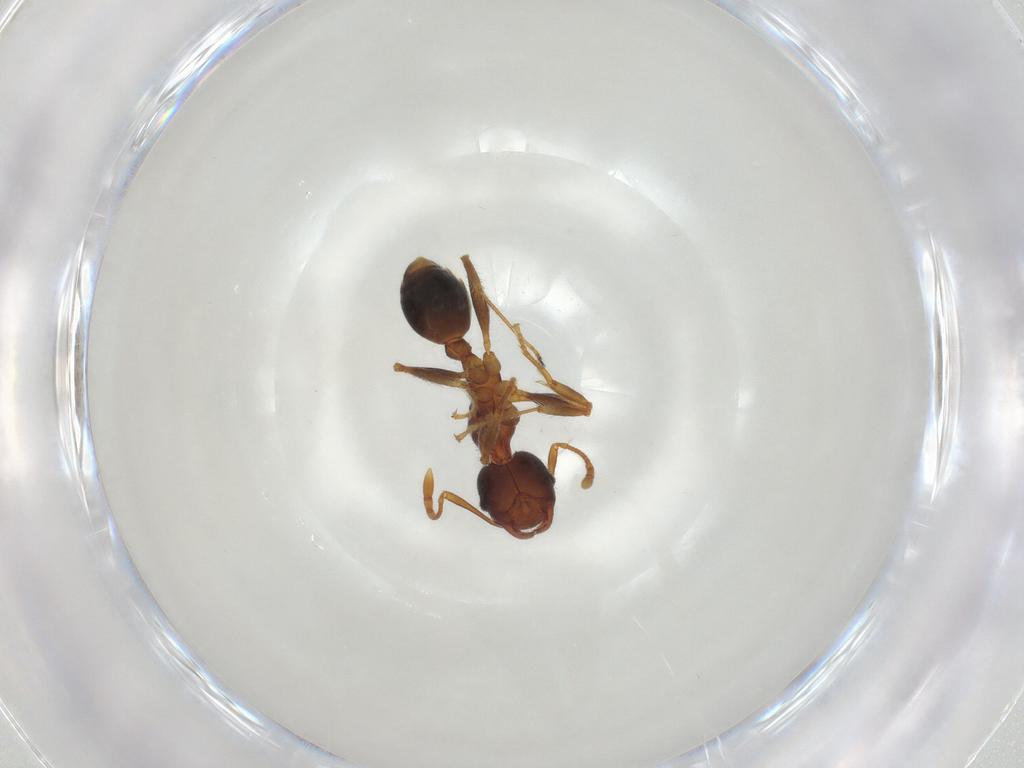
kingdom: Animalia
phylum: Arthropoda
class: Insecta
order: Hymenoptera
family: Formicidae
